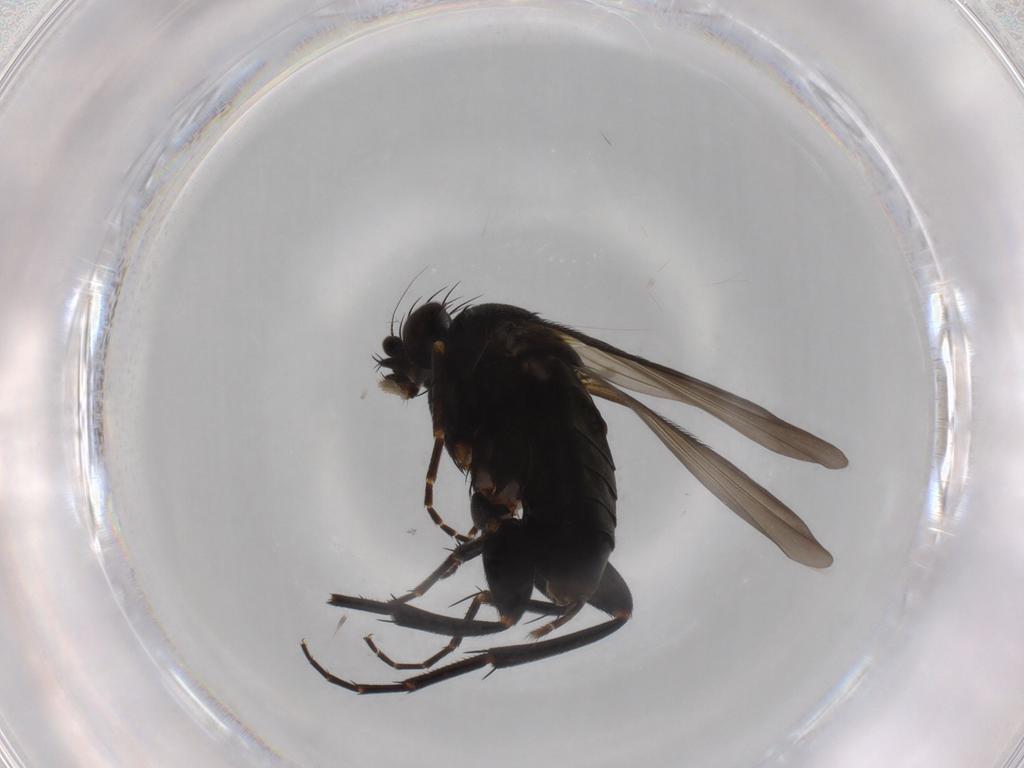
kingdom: Animalia
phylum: Arthropoda
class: Insecta
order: Diptera
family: Phoridae
